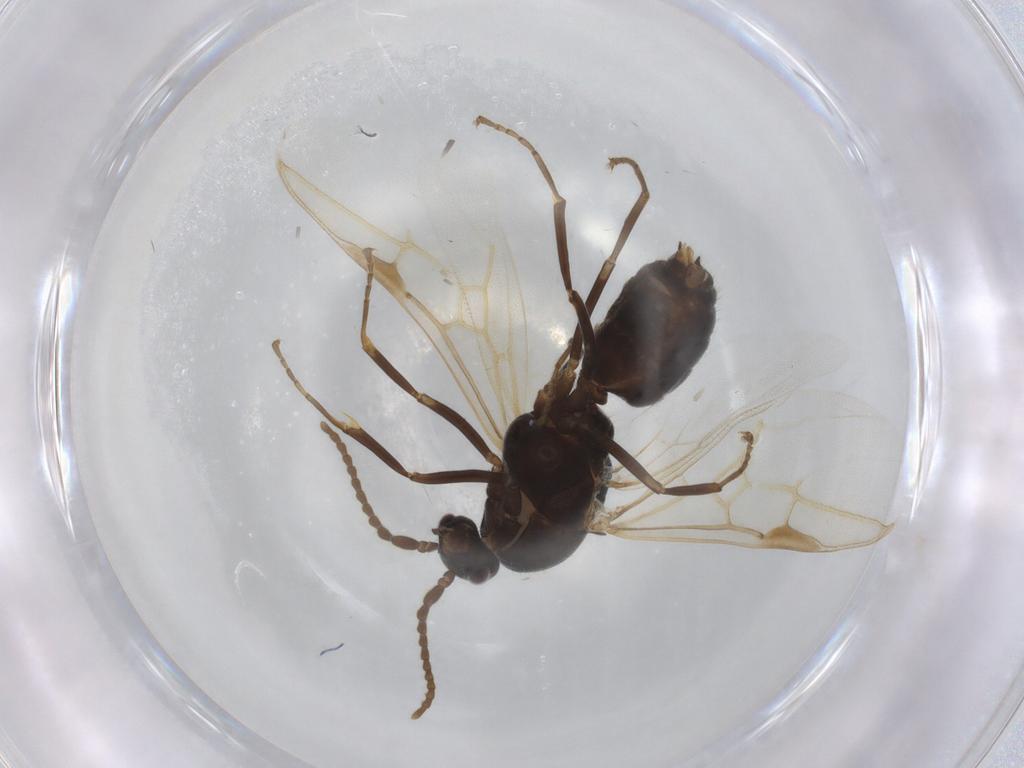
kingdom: Animalia
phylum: Arthropoda
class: Insecta
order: Hymenoptera
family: Formicidae
